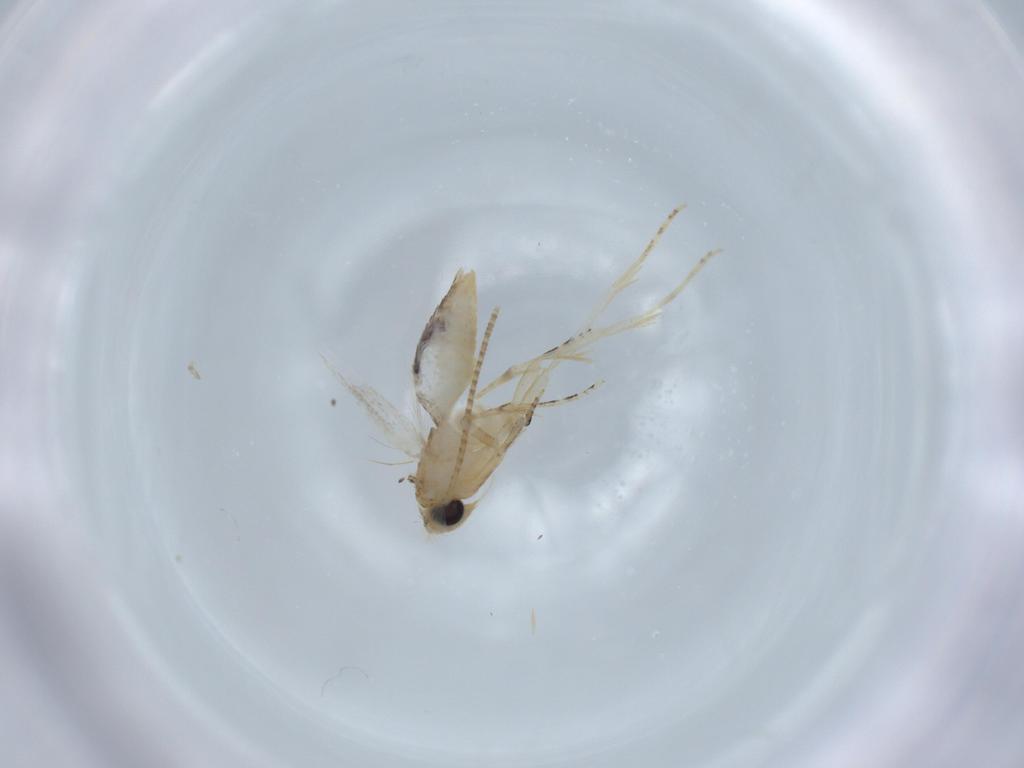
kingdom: Animalia
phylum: Arthropoda
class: Insecta
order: Lepidoptera
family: Bucculatricidae
